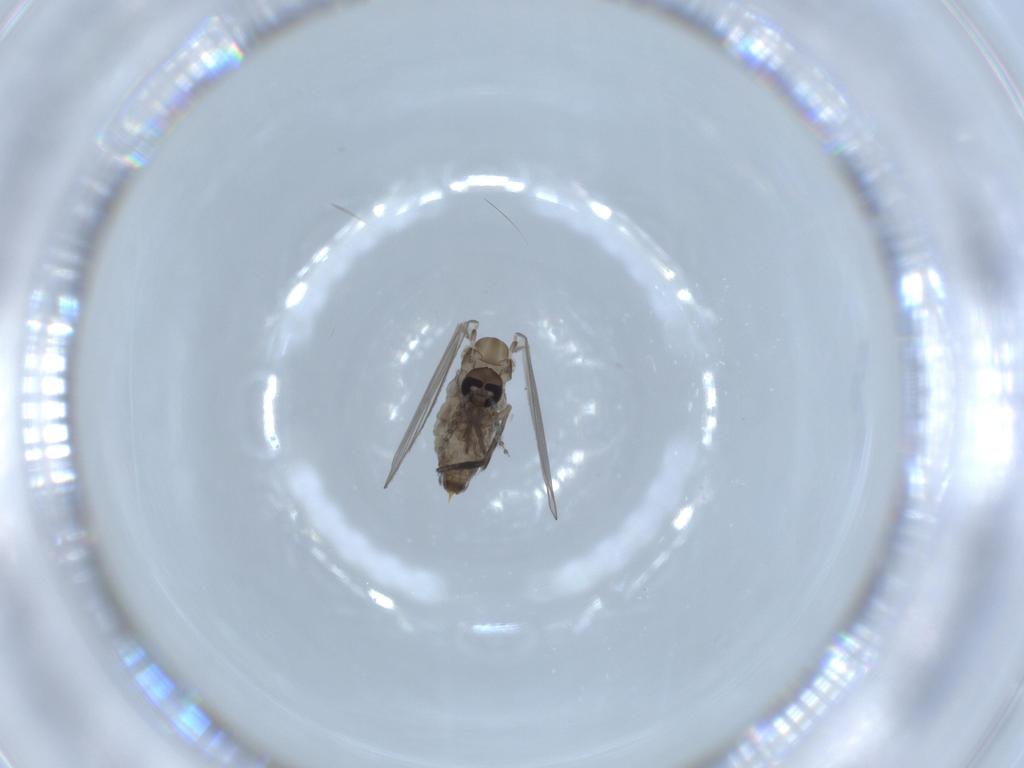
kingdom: Animalia
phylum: Arthropoda
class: Insecta
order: Diptera
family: Psychodidae
